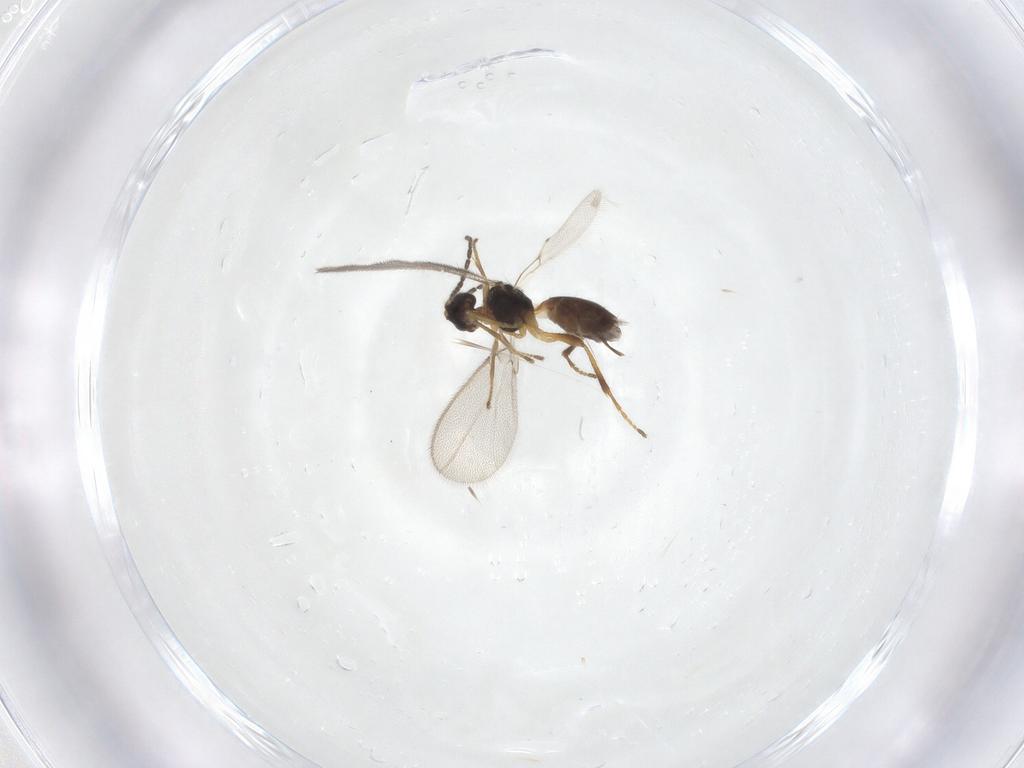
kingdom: Animalia
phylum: Arthropoda
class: Insecta
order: Hymenoptera
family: Braconidae
